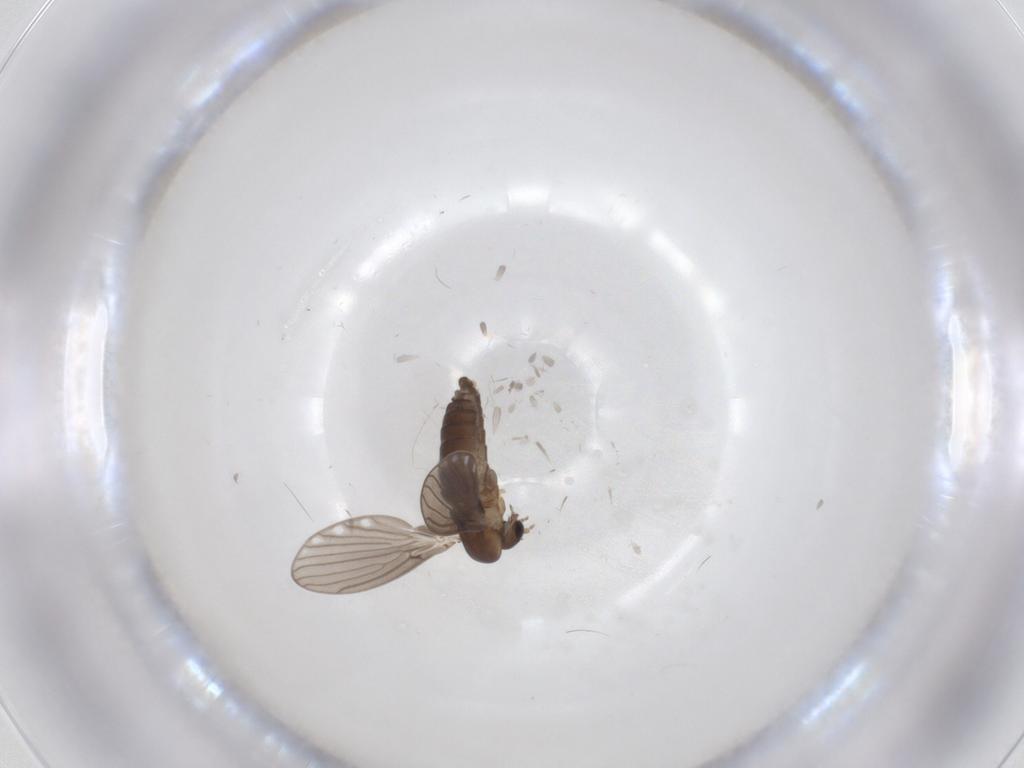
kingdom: Animalia
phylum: Arthropoda
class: Insecta
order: Diptera
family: Psychodidae
